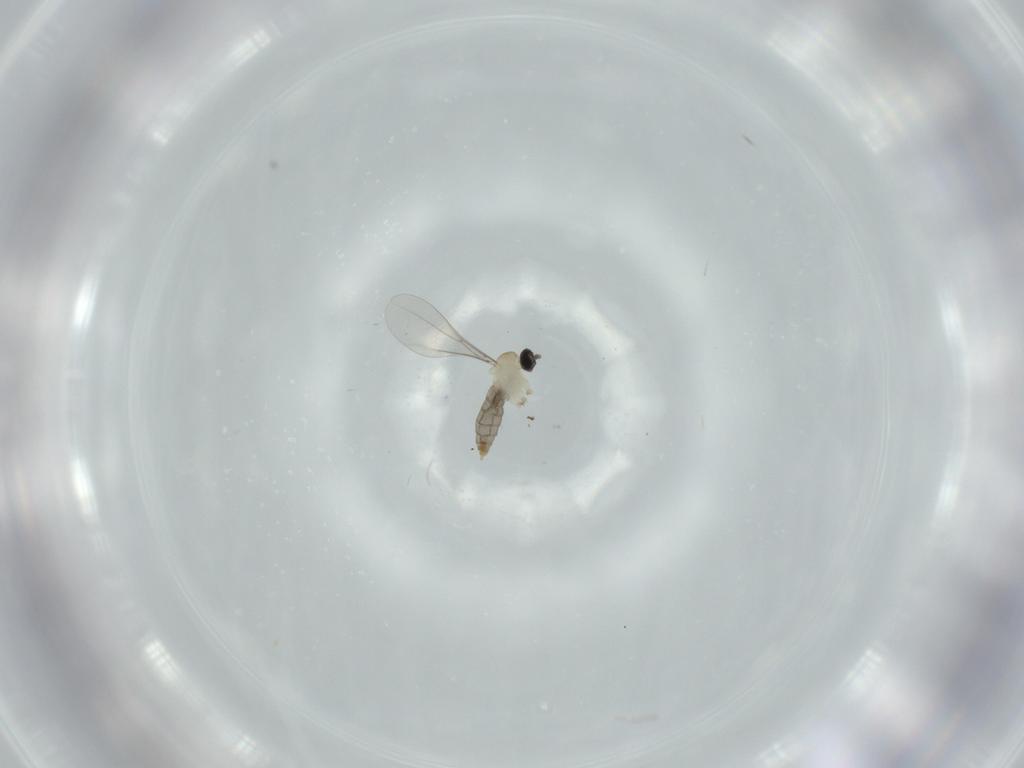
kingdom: Animalia
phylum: Arthropoda
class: Insecta
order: Diptera
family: Cecidomyiidae
